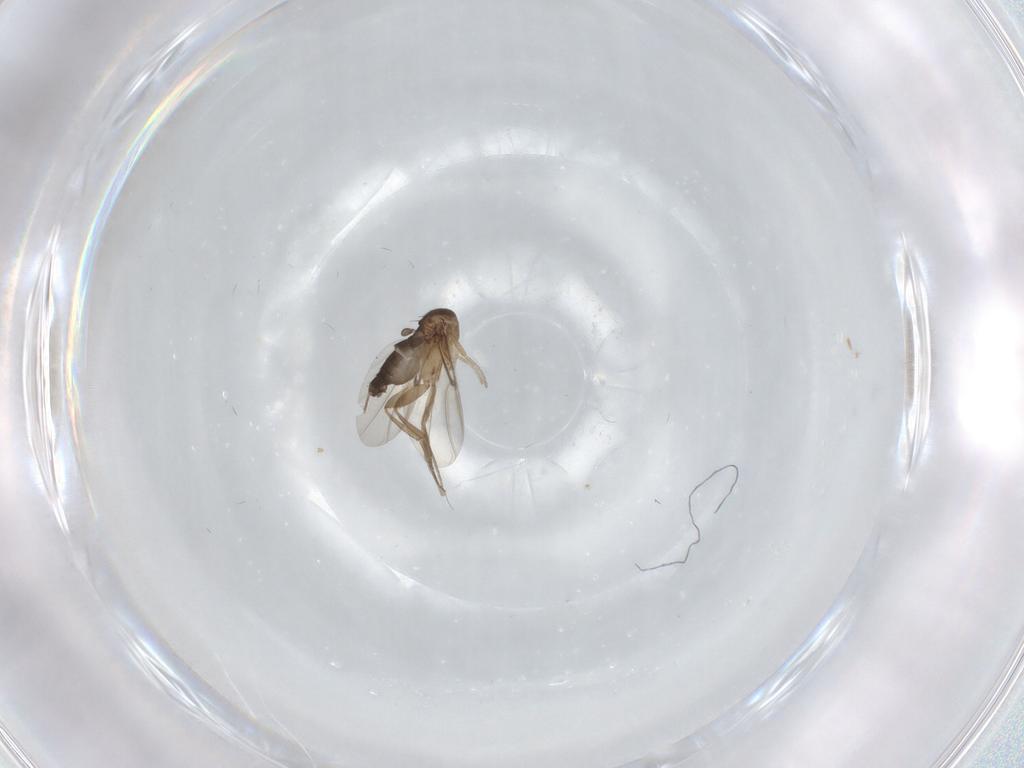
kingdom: Animalia
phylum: Arthropoda
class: Insecta
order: Diptera
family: Phoridae
